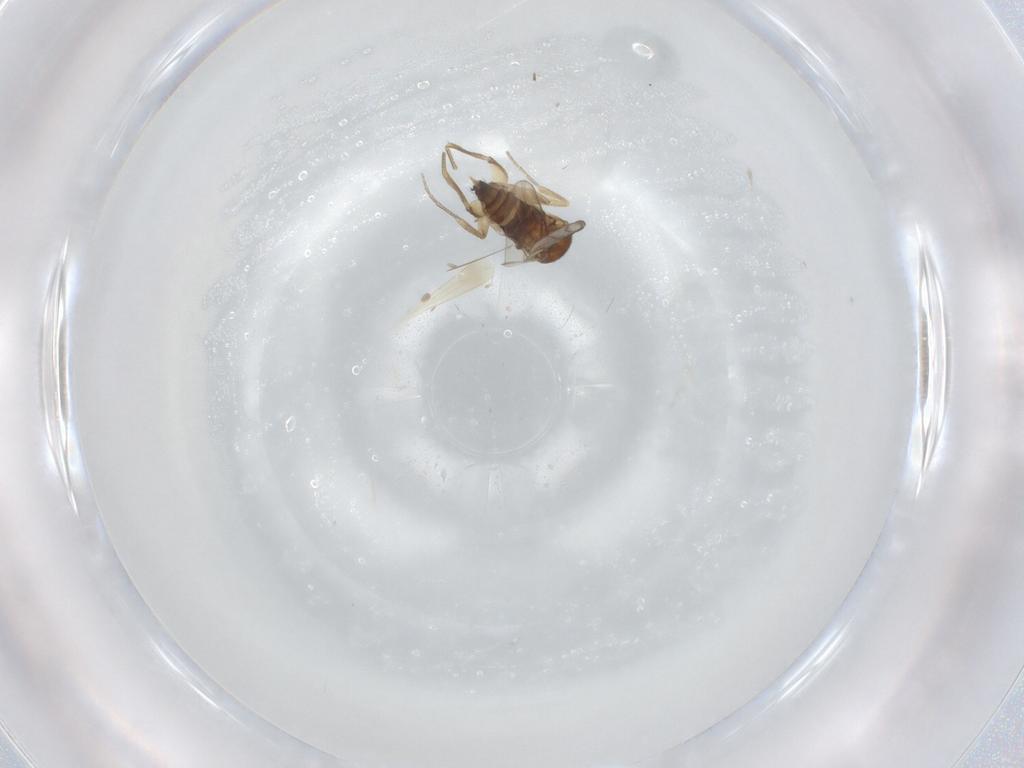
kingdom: Animalia
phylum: Arthropoda
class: Insecta
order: Diptera
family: Phoridae
